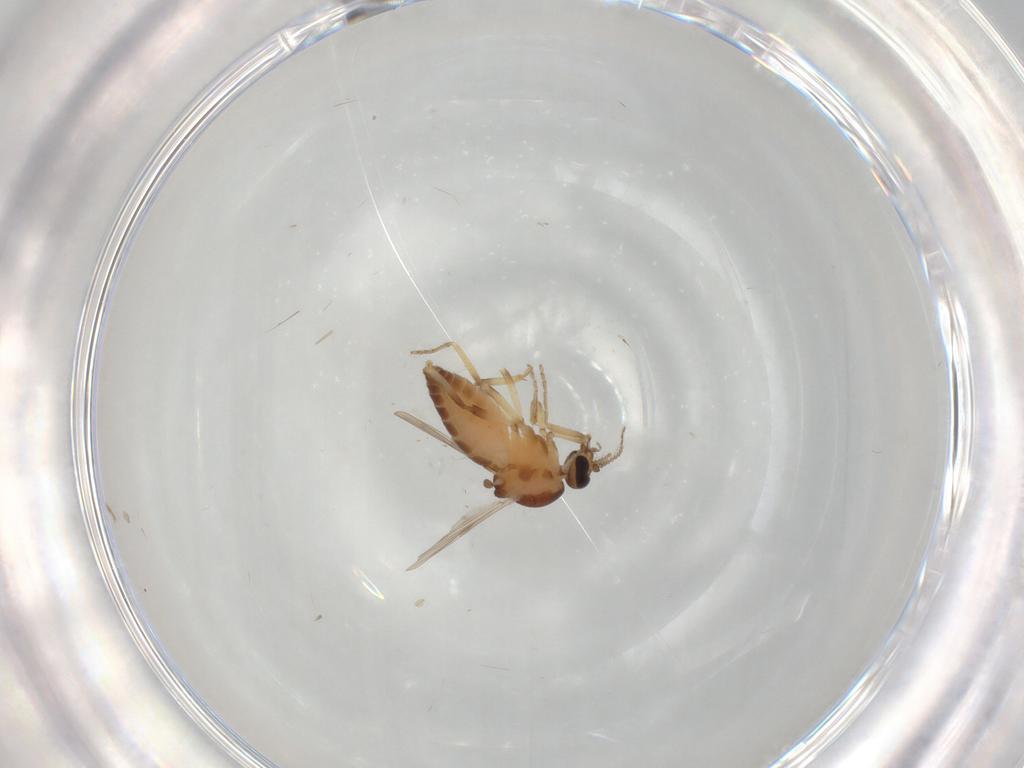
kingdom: Animalia
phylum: Arthropoda
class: Insecta
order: Diptera
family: Ceratopogonidae
